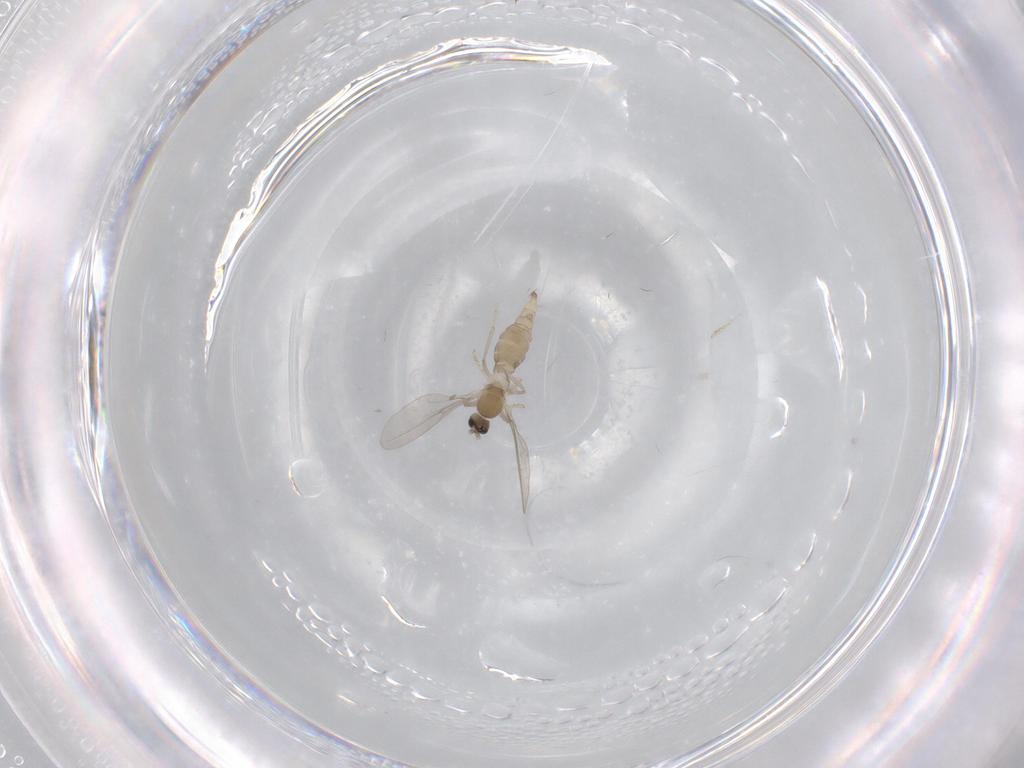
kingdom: Animalia
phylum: Arthropoda
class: Insecta
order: Diptera
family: Cecidomyiidae
